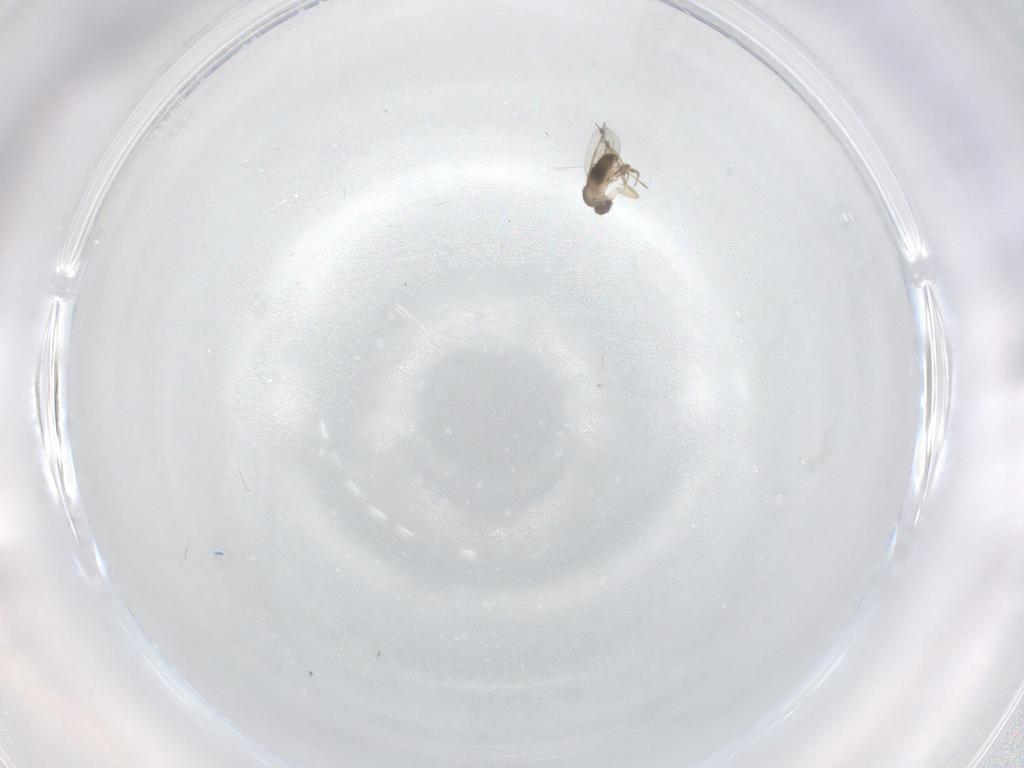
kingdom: Animalia
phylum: Arthropoda
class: Insecta
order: Diptera
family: Cecidomyiidae
